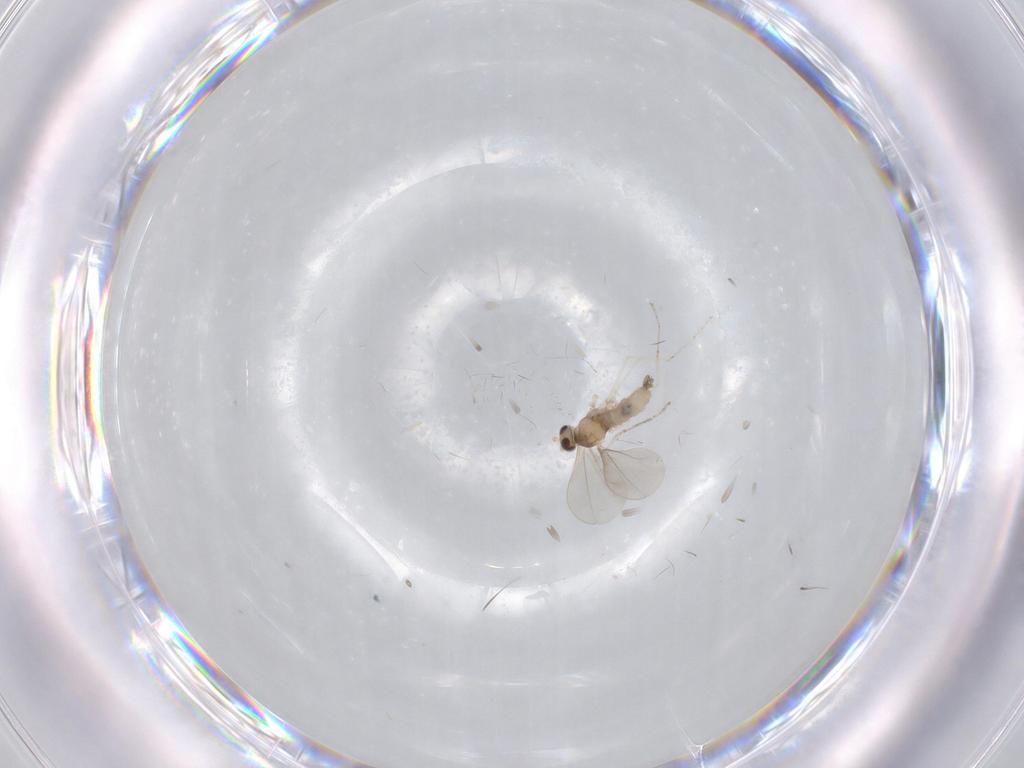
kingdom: Animalia
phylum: Arthropoda
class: Insecta
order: Diptera
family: Cecidomyiidae
